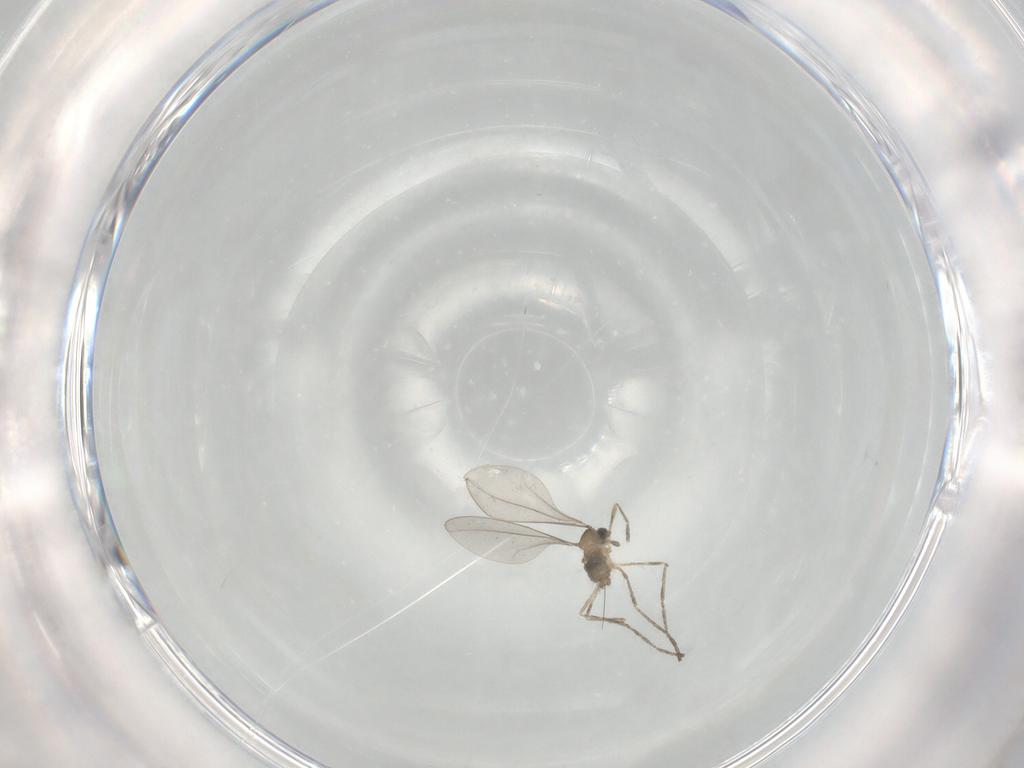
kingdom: Animalia
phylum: Arthropoda
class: Insecta
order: Diptera
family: Cecidomyiidae
